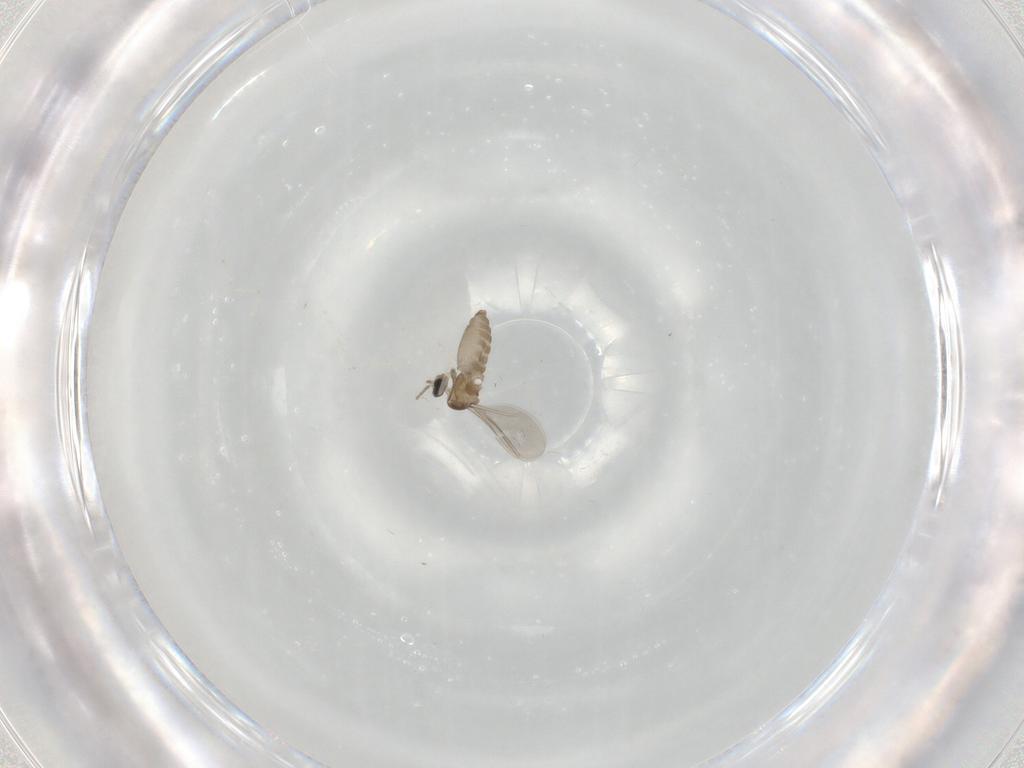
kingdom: Animalia
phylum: Arthropoda
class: Insecta
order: Diptera
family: Cecidomyiidae
